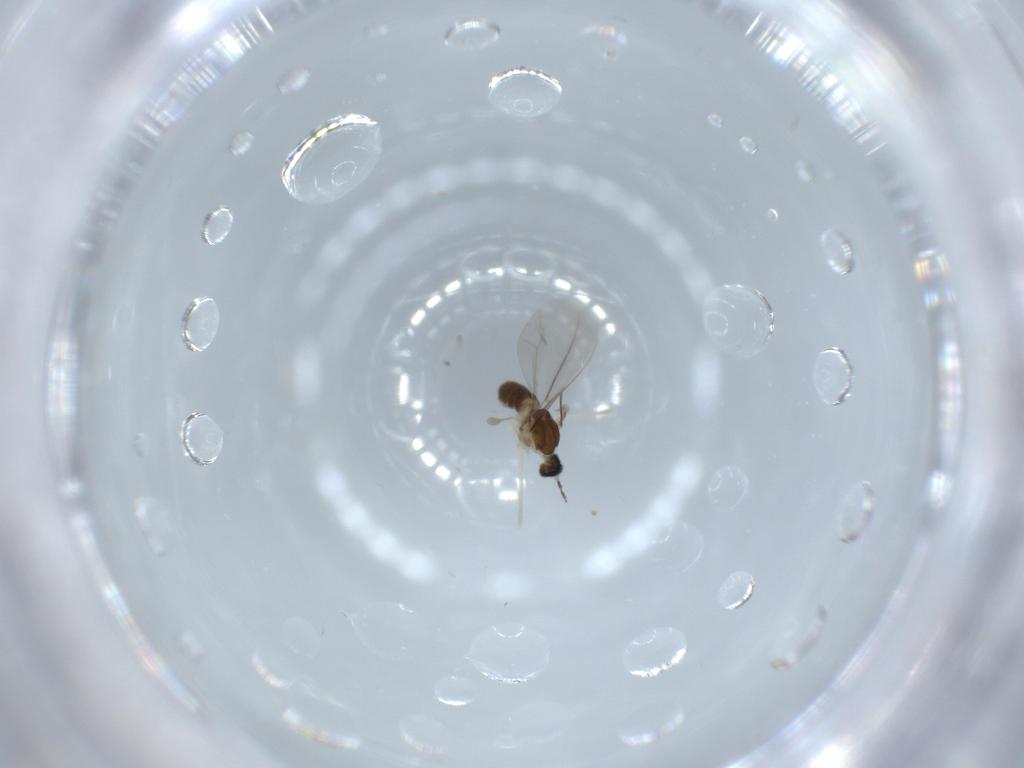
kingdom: Animalia
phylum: Arthropoda
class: Insecta
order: Diptera
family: Cecidomyiidae
